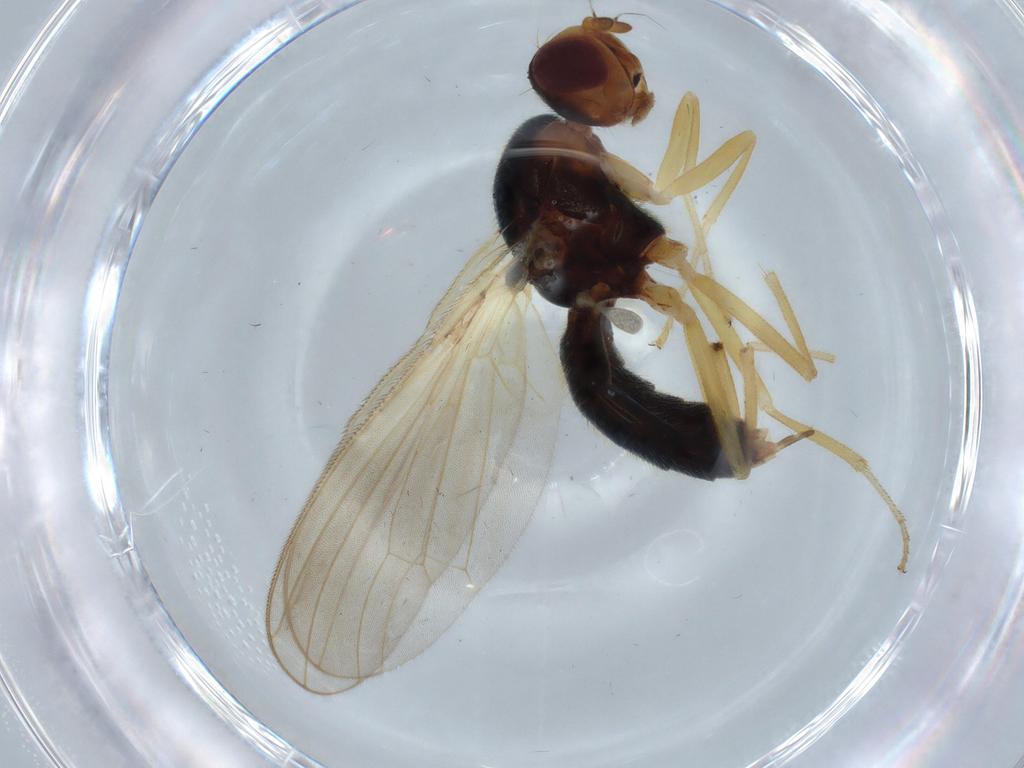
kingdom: Animalia
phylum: Arthropoda
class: Insecta
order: Diptera
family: Psilidae
